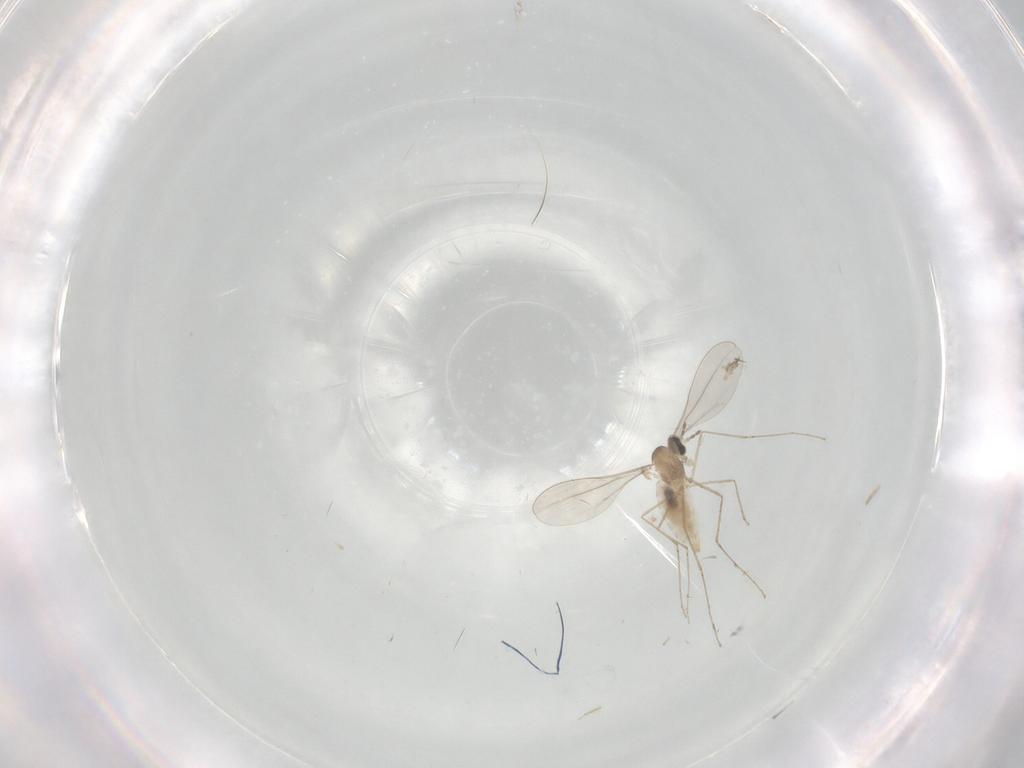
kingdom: Animalia
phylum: Arthropoda
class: Insecta
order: Diptera
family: Cecidomyiidae
